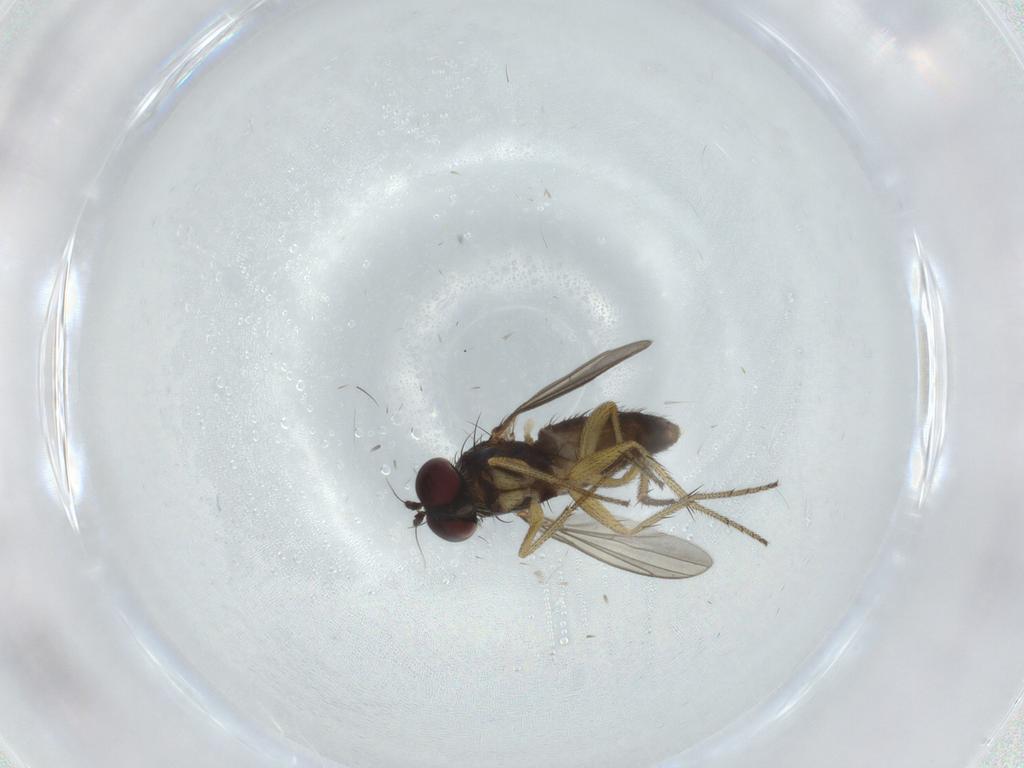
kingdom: Animalia
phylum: Arthropoda
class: Insecta
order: Diptera
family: Dolichopodidae
